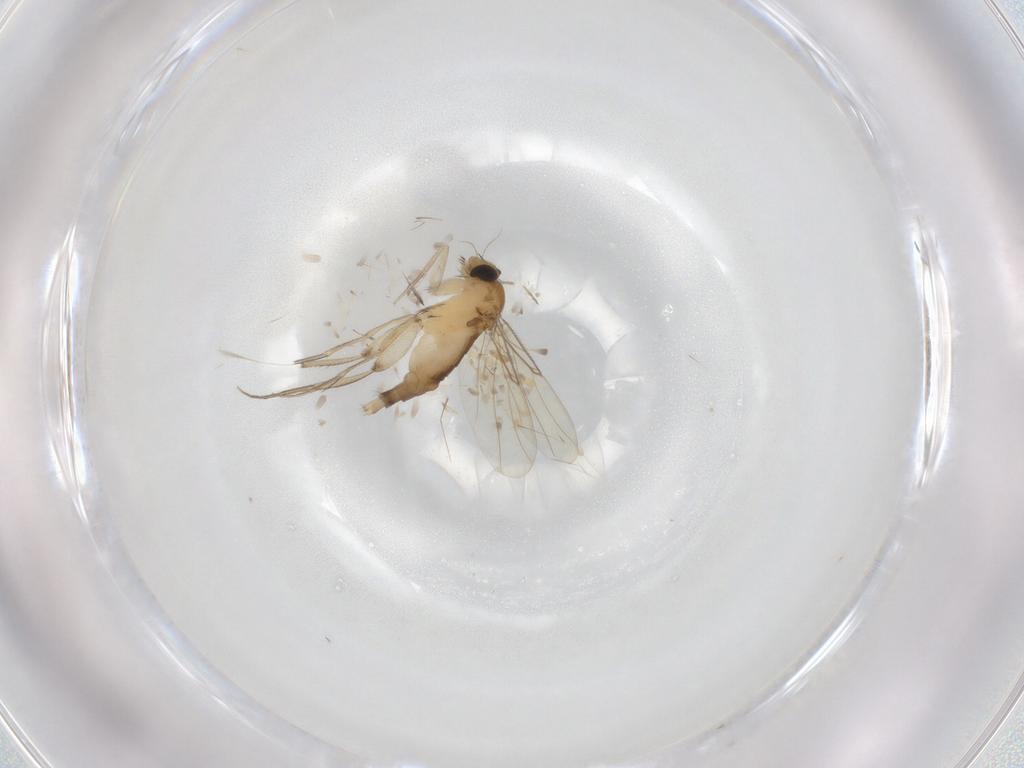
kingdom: Animalia
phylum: Arthropoda
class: Insecta
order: Diptera
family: Phoridae
